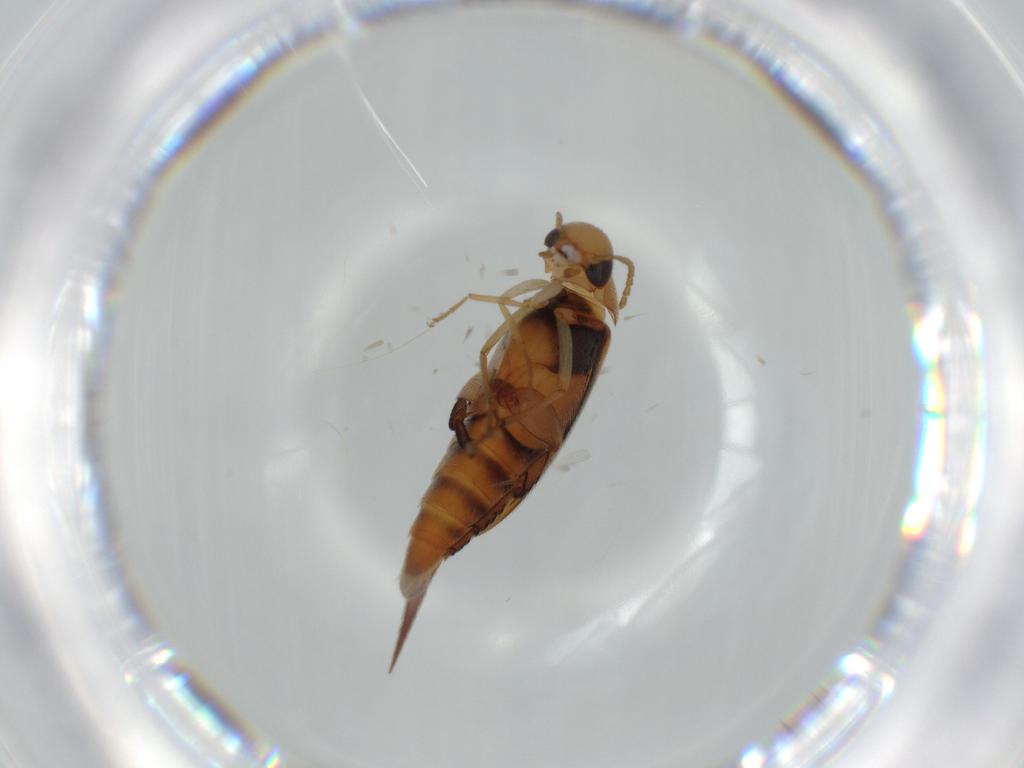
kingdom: Animalia
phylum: Arthropoda
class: Insecta
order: Coleoptera
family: Mordellidae
